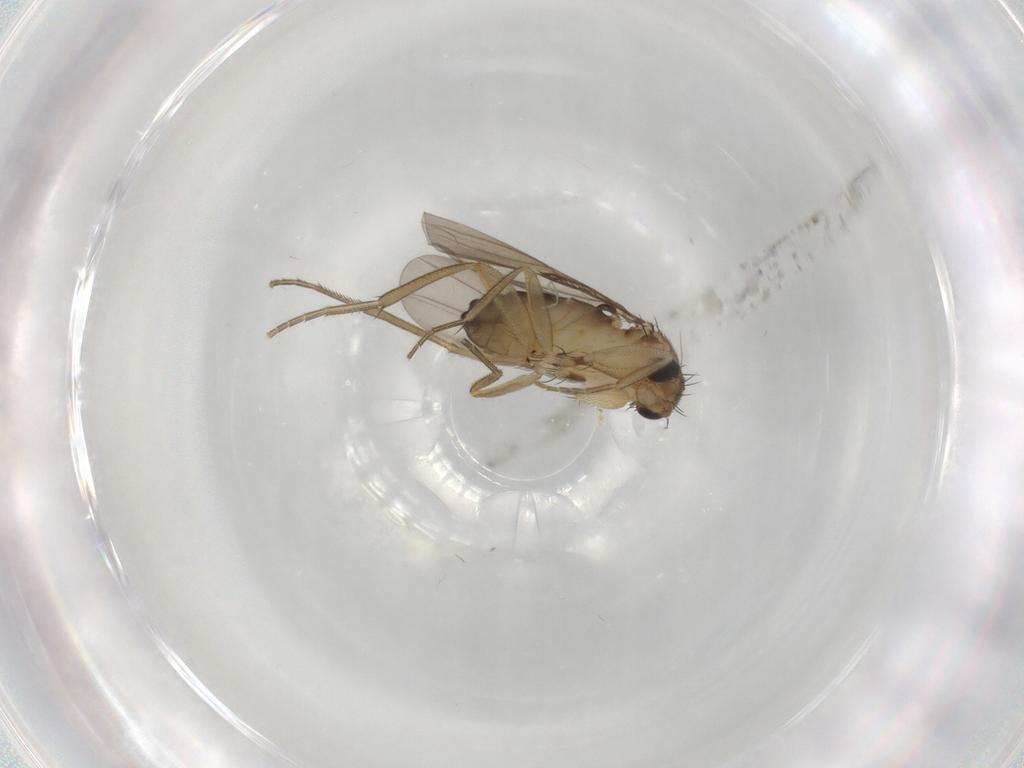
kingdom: Animalia
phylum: Arthropoda
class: Insecta
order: Diptera
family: Phoridae
